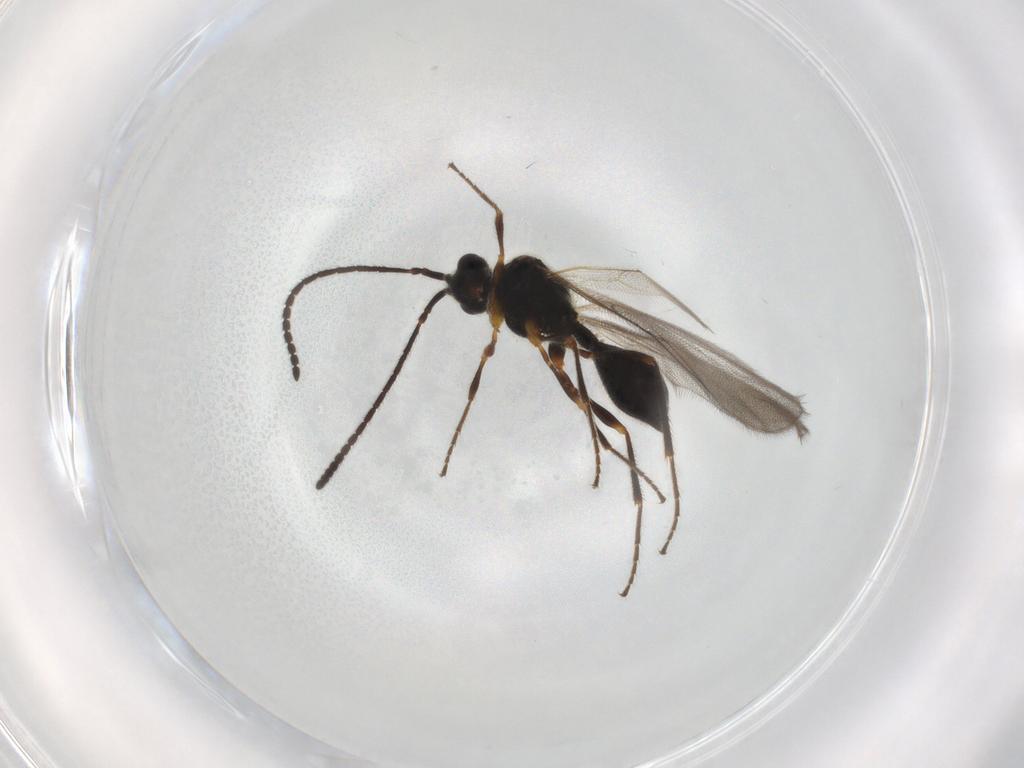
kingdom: Animalia
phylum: Arthropoda
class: Insecta
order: Hymenoptera
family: Diapriidae
